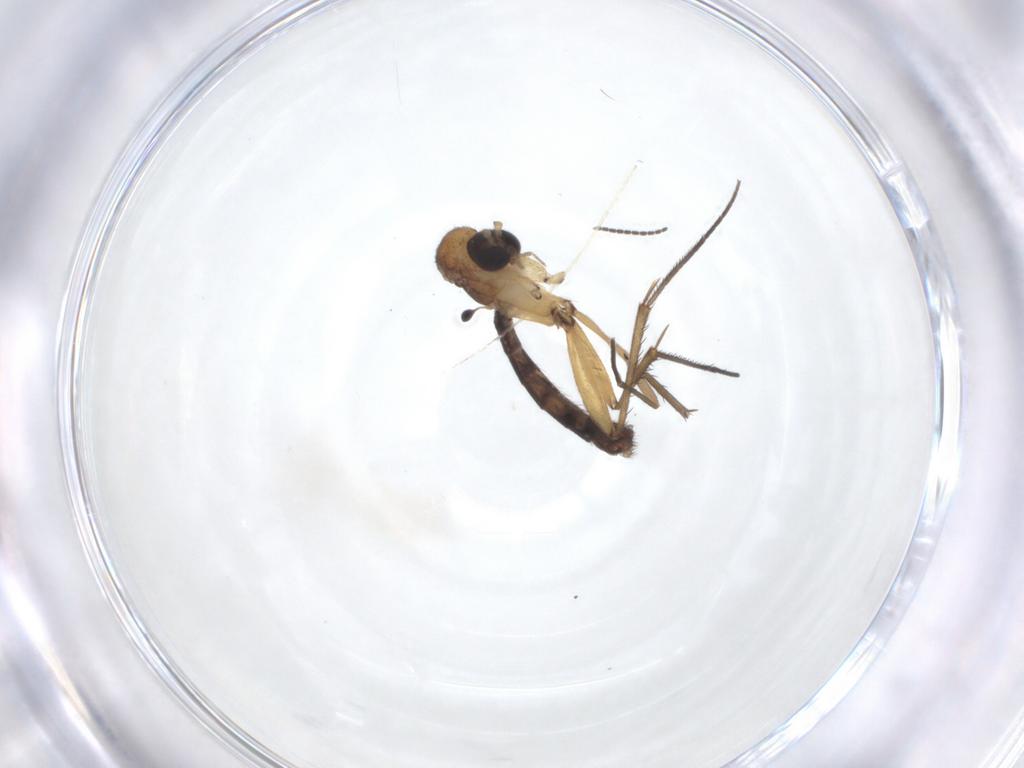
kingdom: Animalia
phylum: Arthropoda
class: Insecta
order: Diptera
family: Sciaridae
